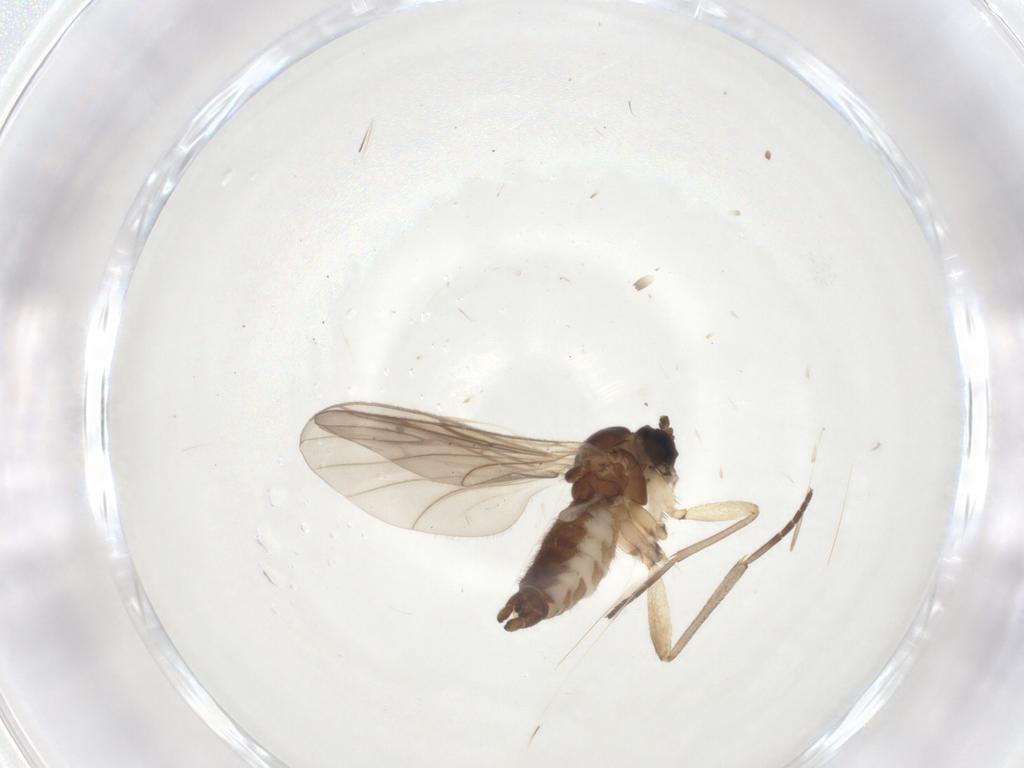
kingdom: Animalia
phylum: Arthropoda
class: Insecta
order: Diptera
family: Sciaridae
